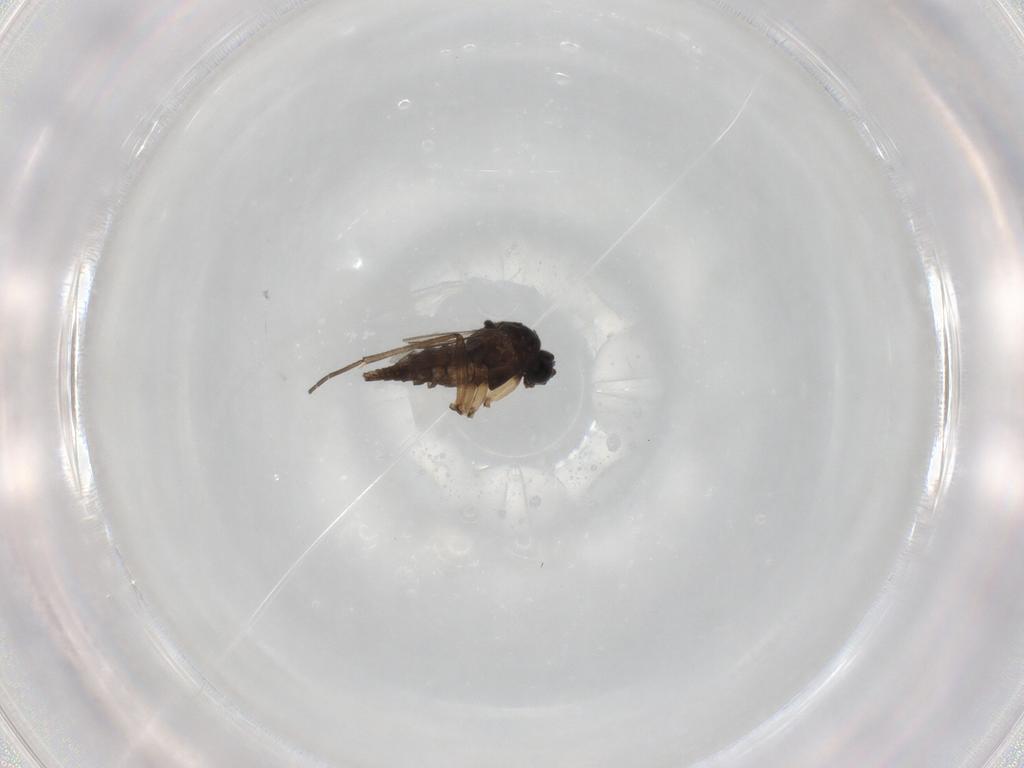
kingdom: Animalia
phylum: Arthropoda
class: Insecta
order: Diptera
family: Sciaridae
